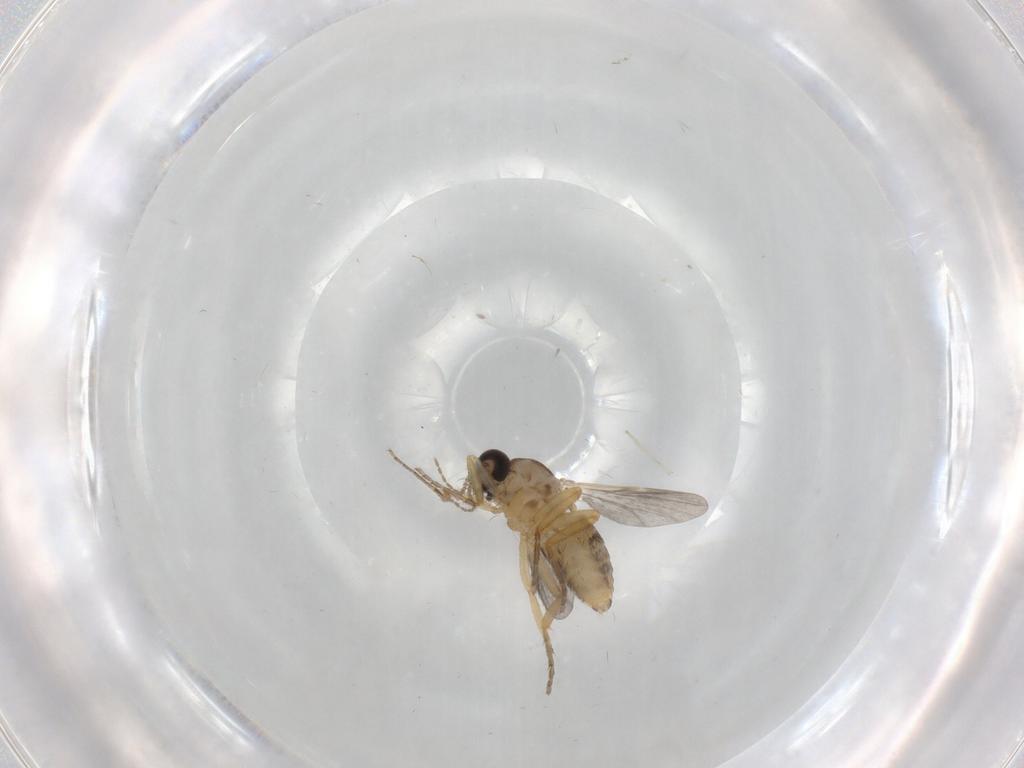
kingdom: Animalia
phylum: Arthropoda
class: Insecta
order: Diptera
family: Ceratopogonidae
